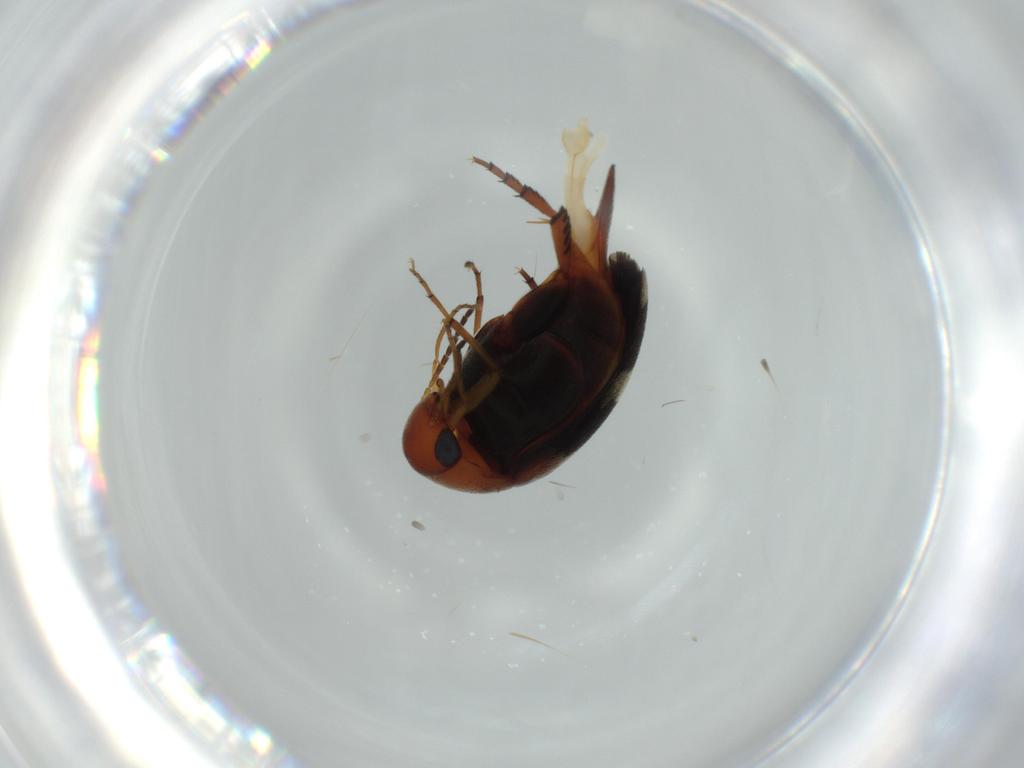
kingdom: Animalia
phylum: Arthropoda
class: Insecta
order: Coleoptera
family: Mordellidae
